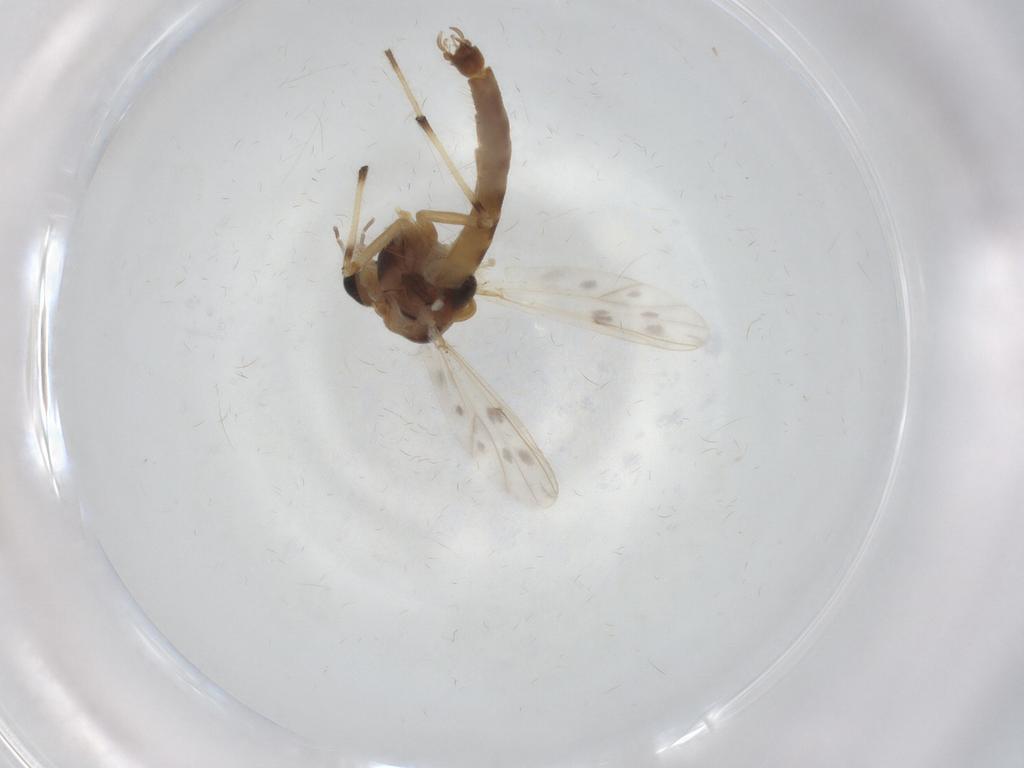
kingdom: Animalia
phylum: Arthropoda
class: Insecta
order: Diptera
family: Chironomidae
